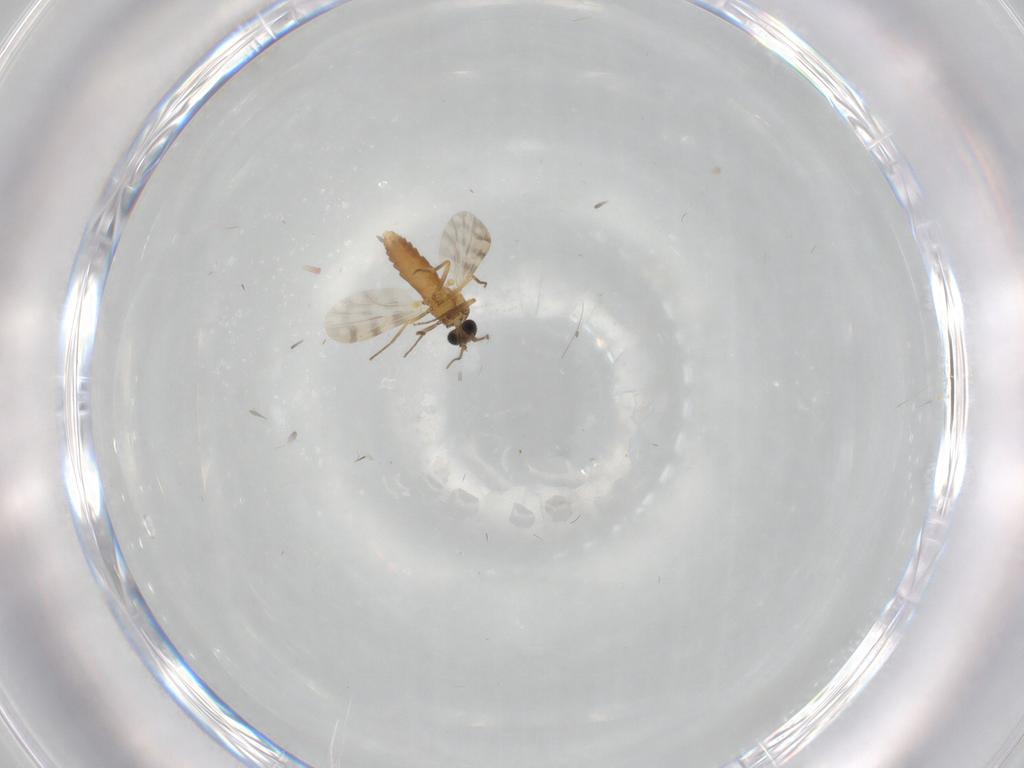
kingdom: Animalia
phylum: Arthropoda
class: Insecta
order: Diptera
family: Ceratopogonidae
